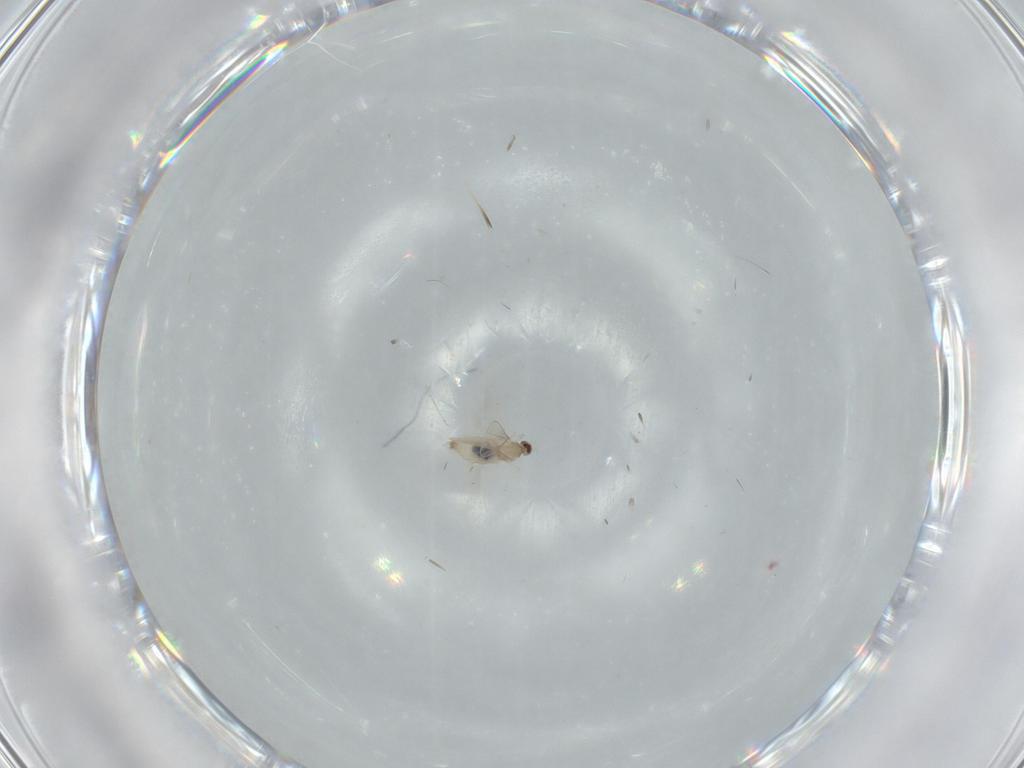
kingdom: Animalia
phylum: Arthropoda
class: Insecta
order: Diptera
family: Cecidomyiidae
